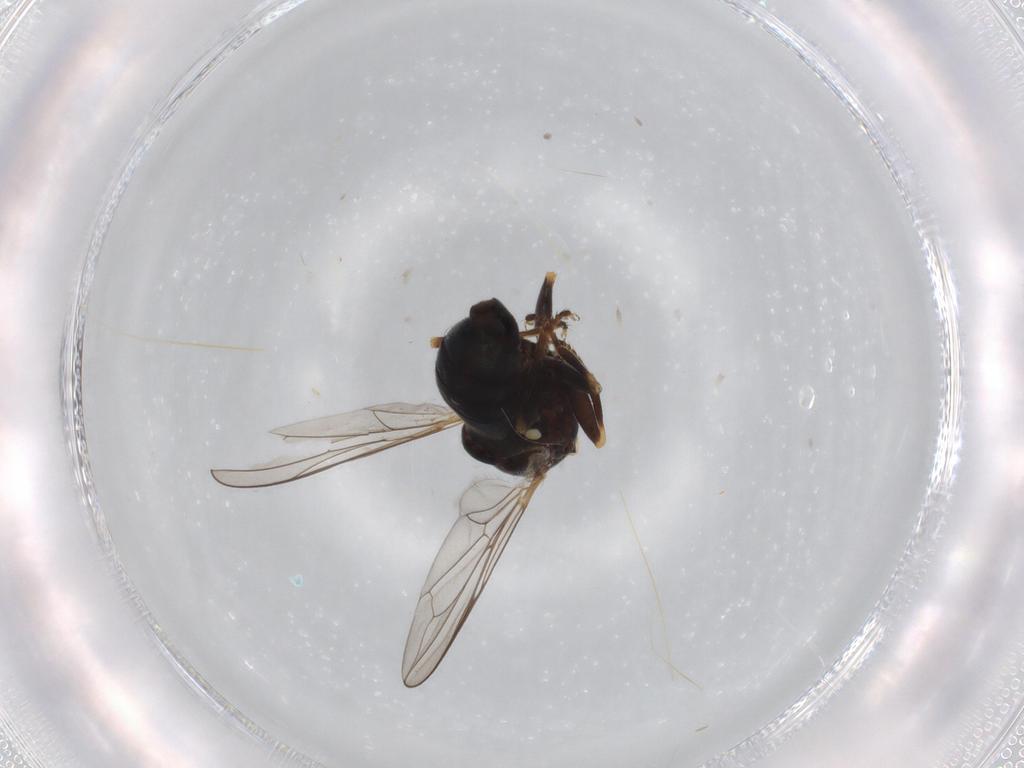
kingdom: Animalia
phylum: Arthropoda
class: Insecta
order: Diptera
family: Pipunculidae
